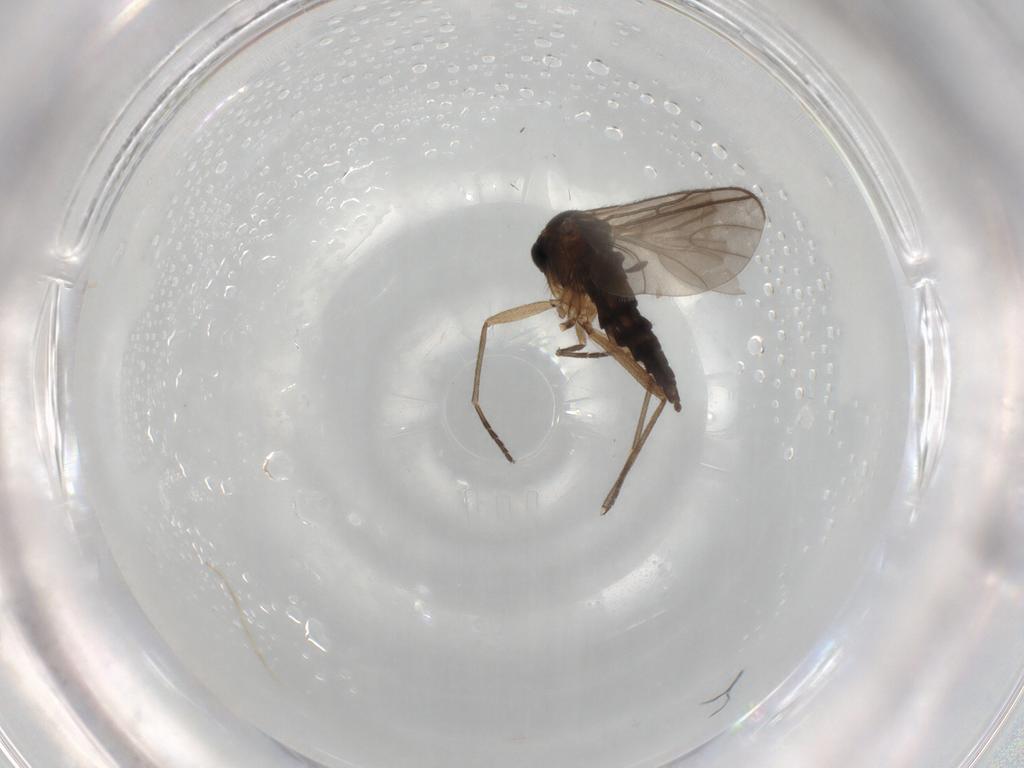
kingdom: Animalia
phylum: Arthropoda
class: Insecta
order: Diptera
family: Sciaridae
